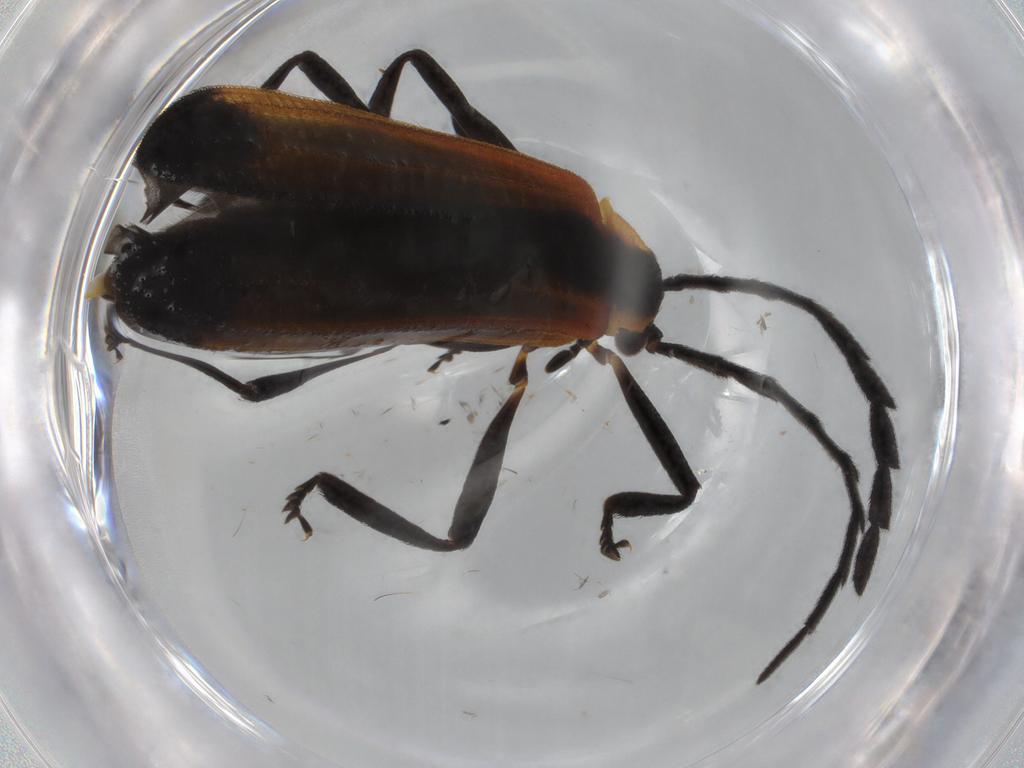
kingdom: Animalia
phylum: Arthropoda
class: Insecta
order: Coleoptera
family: Lycidae
